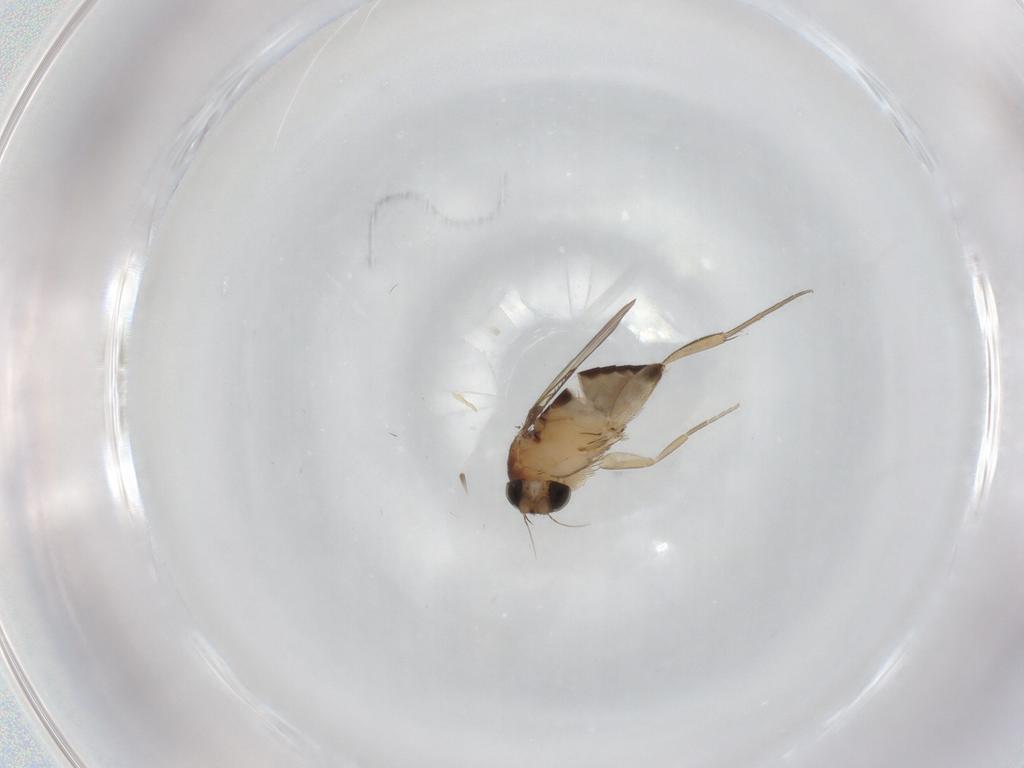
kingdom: Animalia
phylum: Arthropoda
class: Insecta
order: Diptera
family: Phoridae
